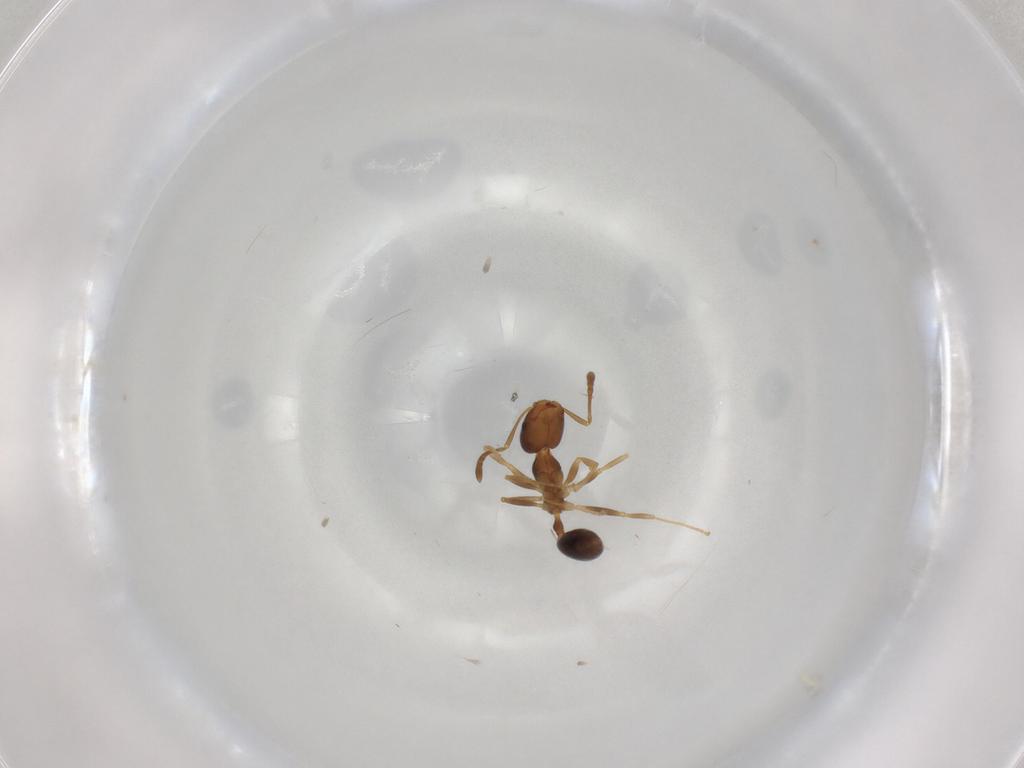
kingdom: Animalia
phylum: Arthropoda
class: Insecta
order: Hymenoptera
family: Formicidae
